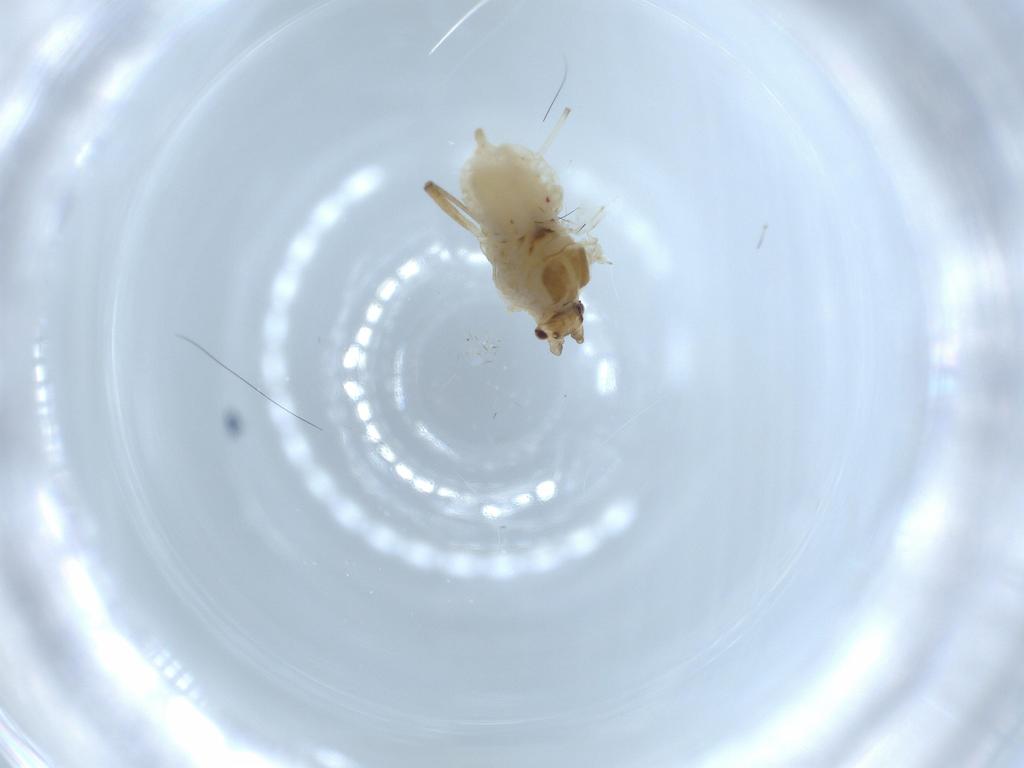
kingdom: Animalia
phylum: Arthropoda
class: Insecta
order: Hemiptera
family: Aphididae
